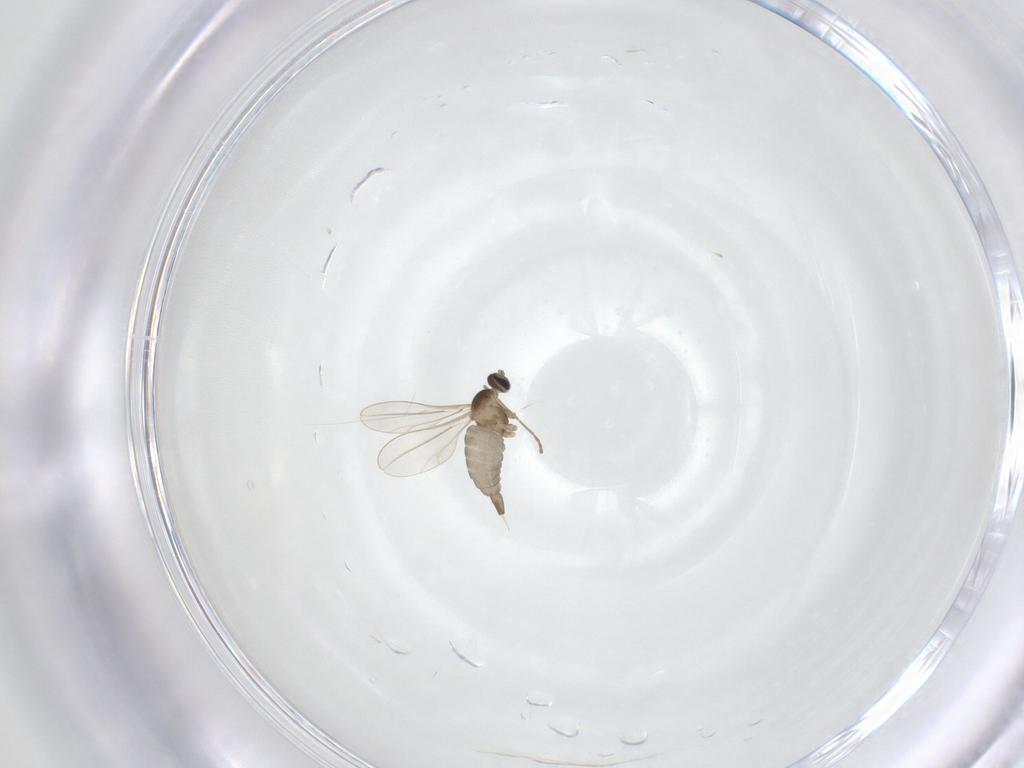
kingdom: Animalia
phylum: Arthropoda
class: Insecta
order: Diptera
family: Cecidomyiidae
